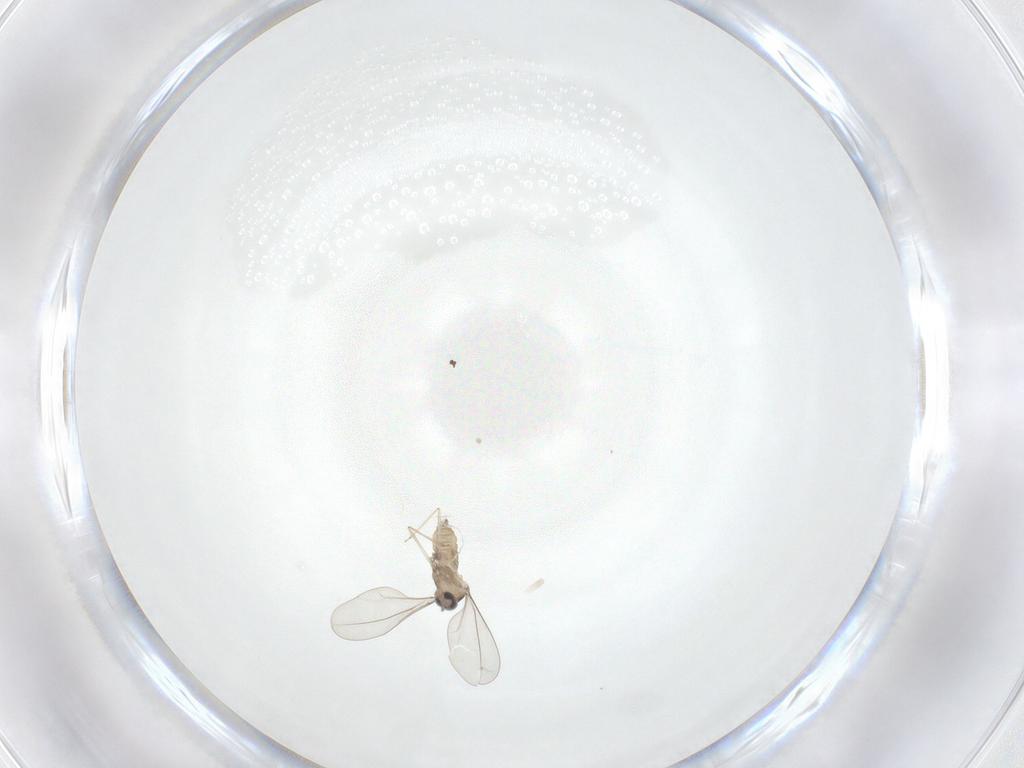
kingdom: Animalia
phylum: Arthropoda
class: Insecta
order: Diptera
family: Cecidomyiidae
